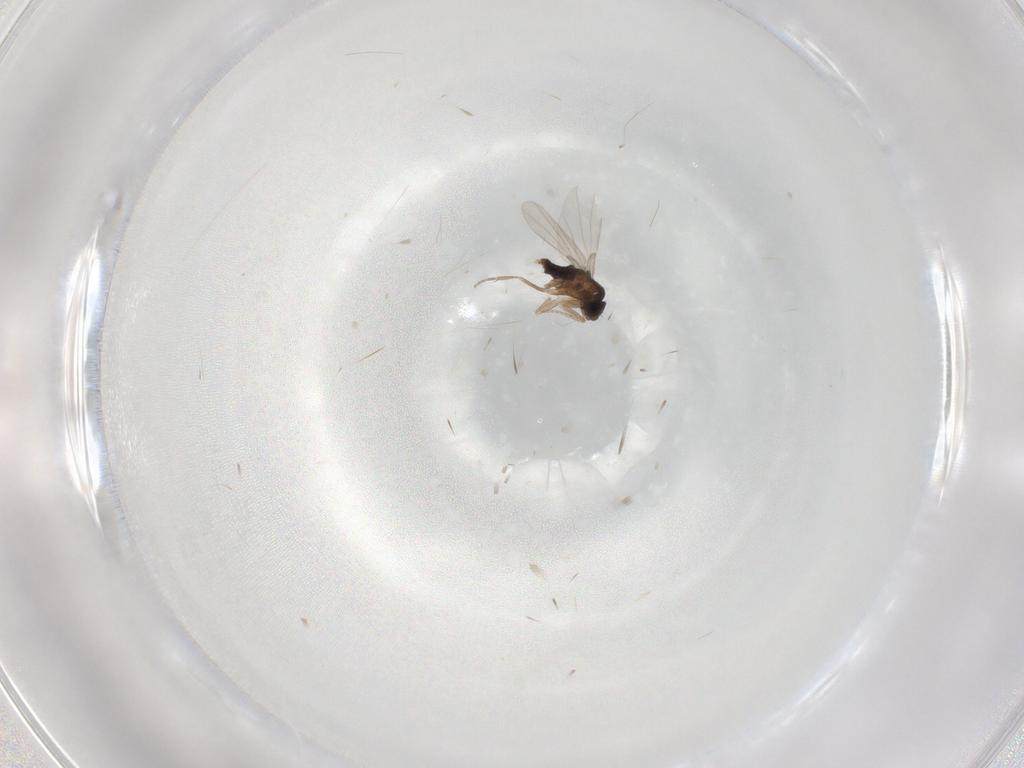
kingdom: Animalia
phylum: Arthropoda
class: Insecta
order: Diptera
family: Phoridae
